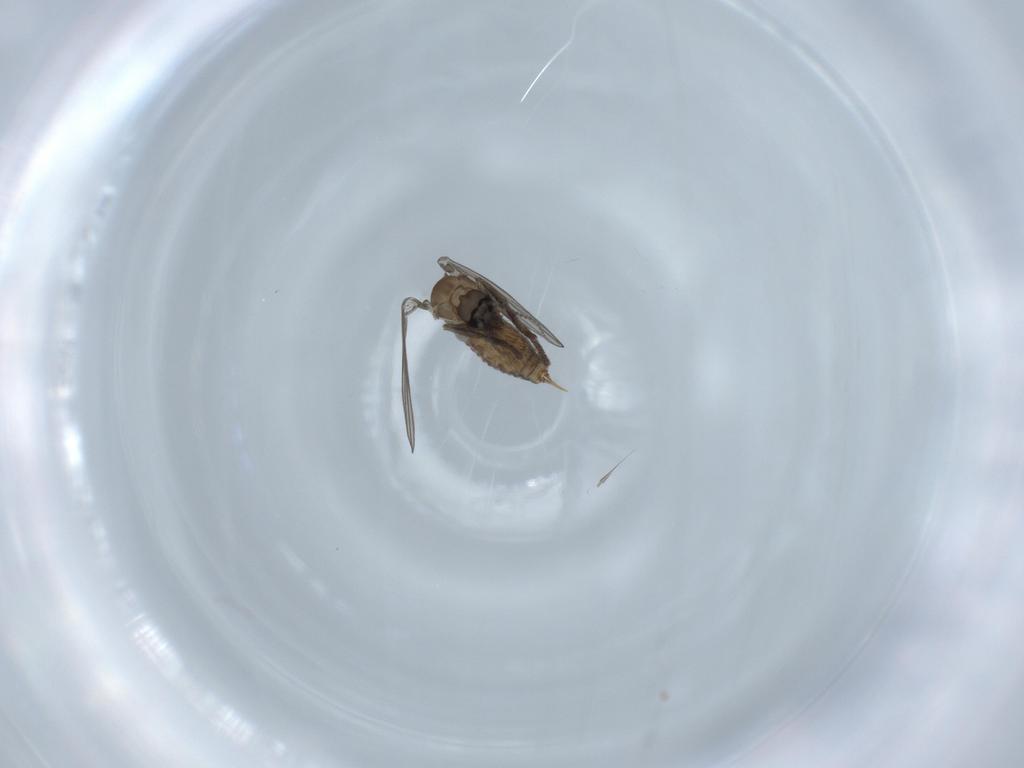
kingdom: Animalia
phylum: Arthropoda
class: Insecta
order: Diptera
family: Psychodidae
